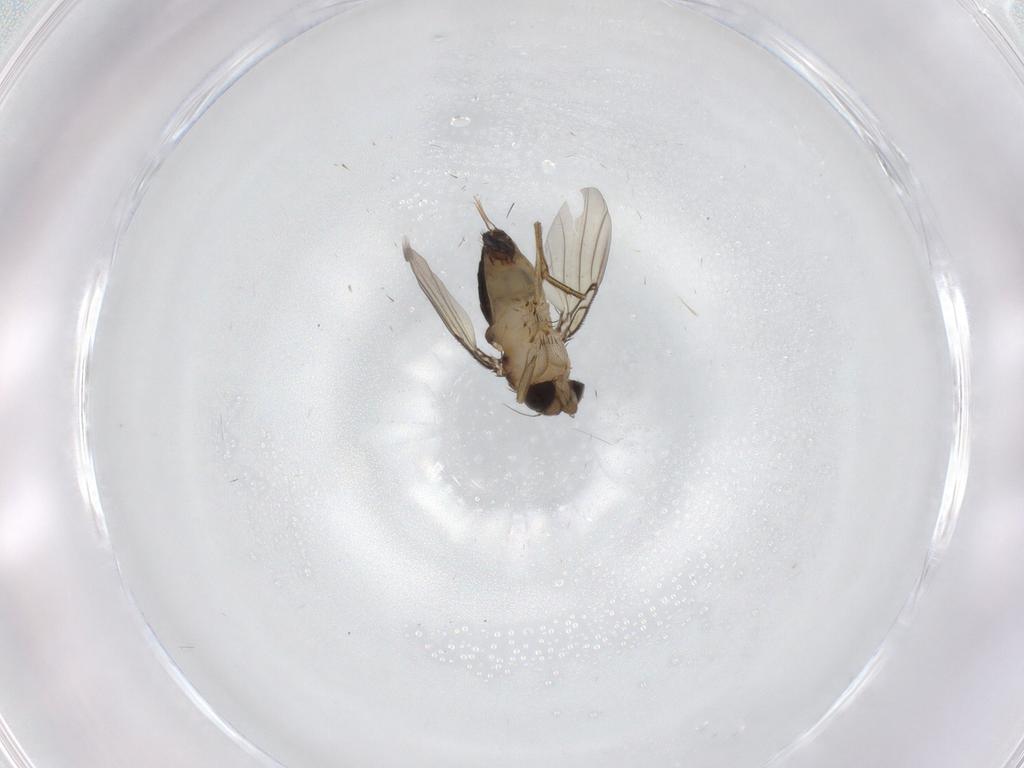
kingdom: Animalia
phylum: Arthropoda
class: Insecta
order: Diptera
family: Phoridae
